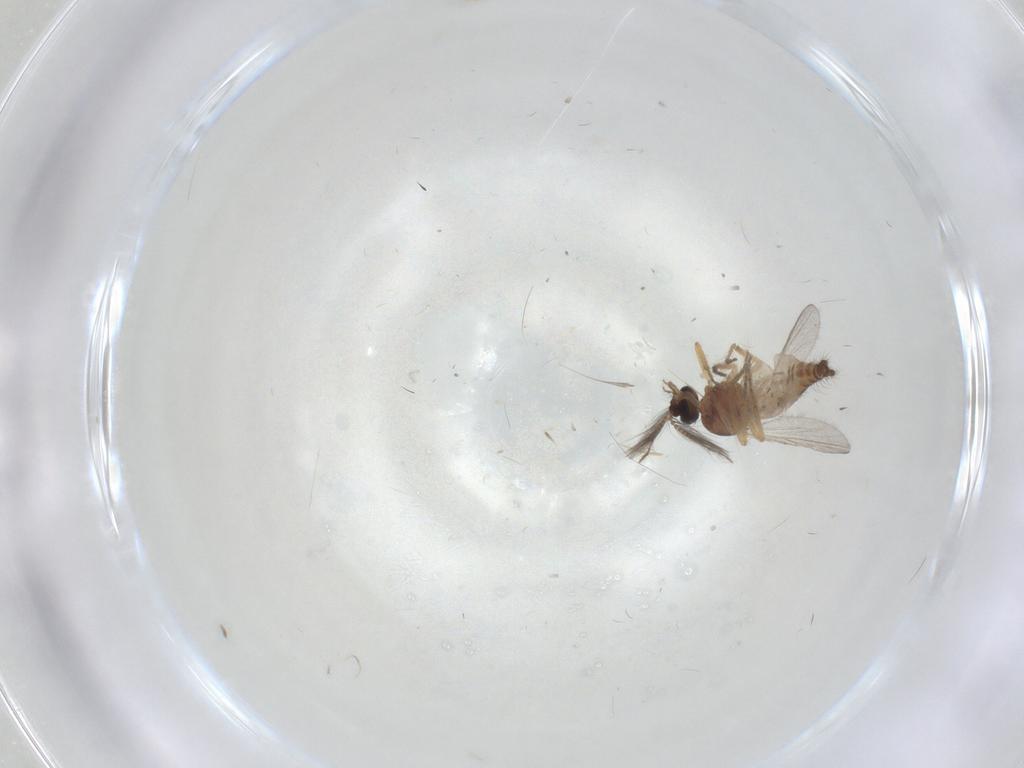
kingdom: Animalia
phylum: Arthropoda
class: Insecta
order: Diptera
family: Ceratopogonidae
